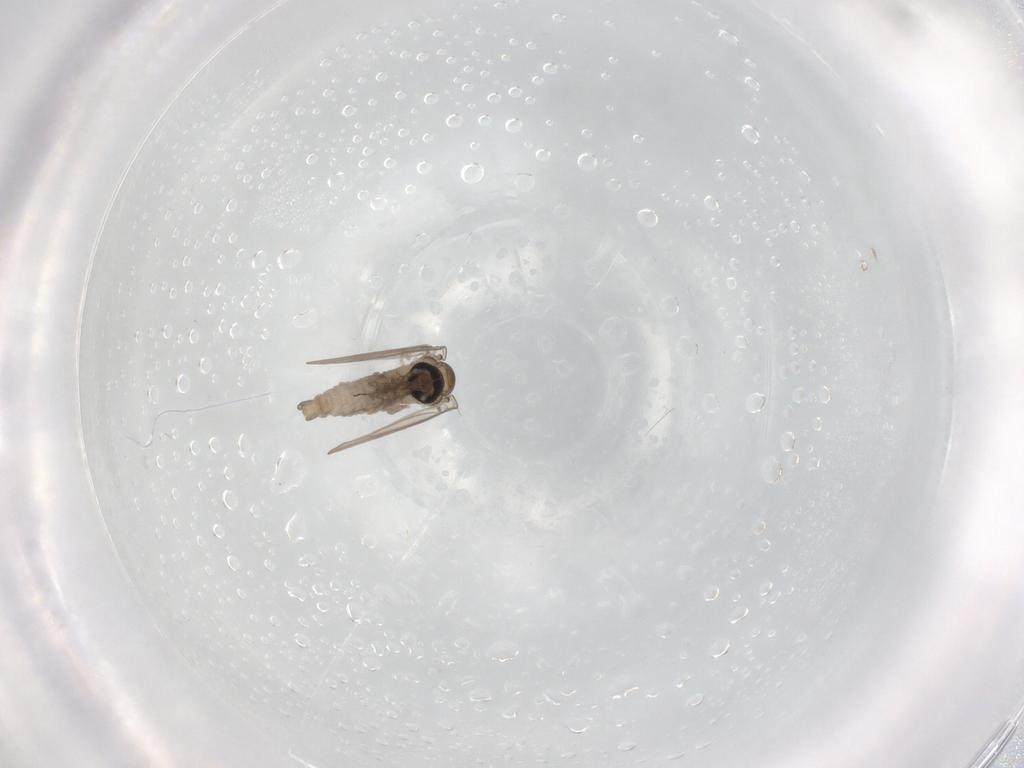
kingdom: Animalia
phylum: Arthropoda
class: Insecta
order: Diptera
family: Psychodidae
